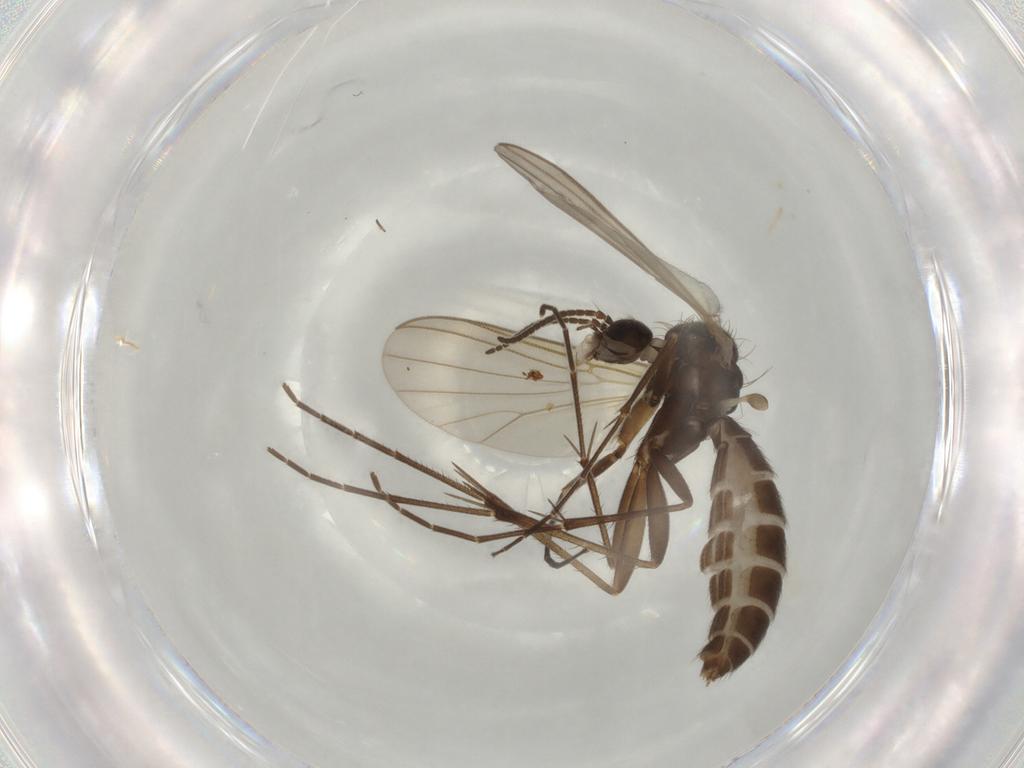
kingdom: Animalia
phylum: Arthropoda
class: Insecta
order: Diptera
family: Mycetophilidae
